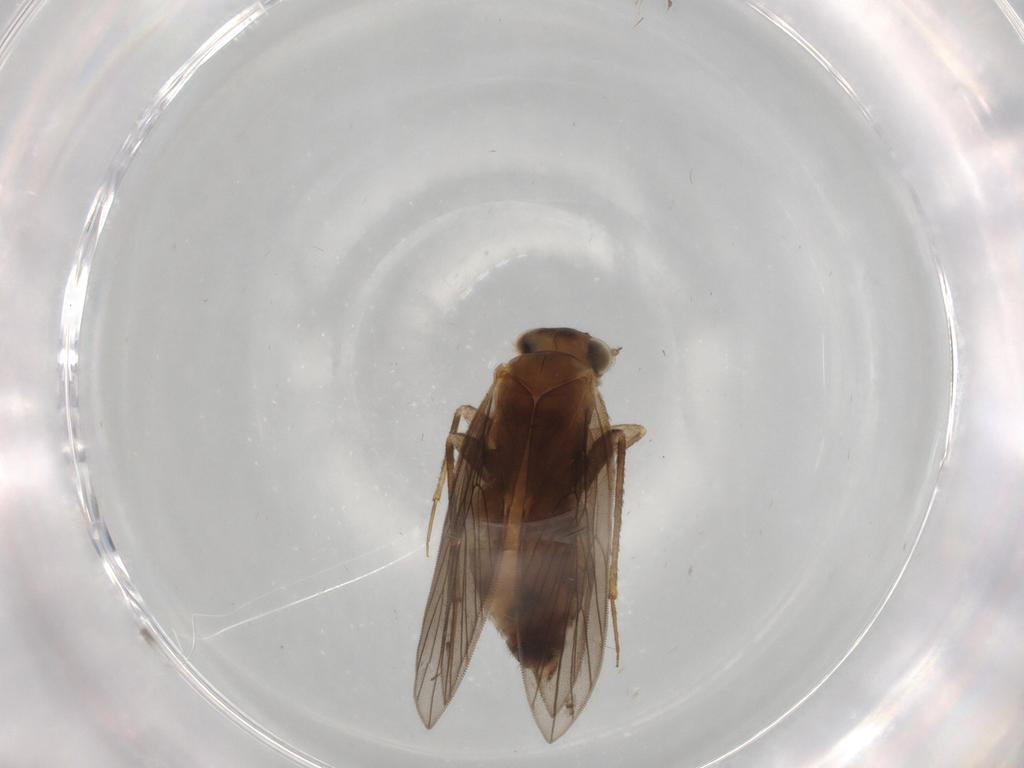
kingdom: Animalia
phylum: Arthropoda
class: Insecta
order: Psocodea
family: Lepidopsocidae
